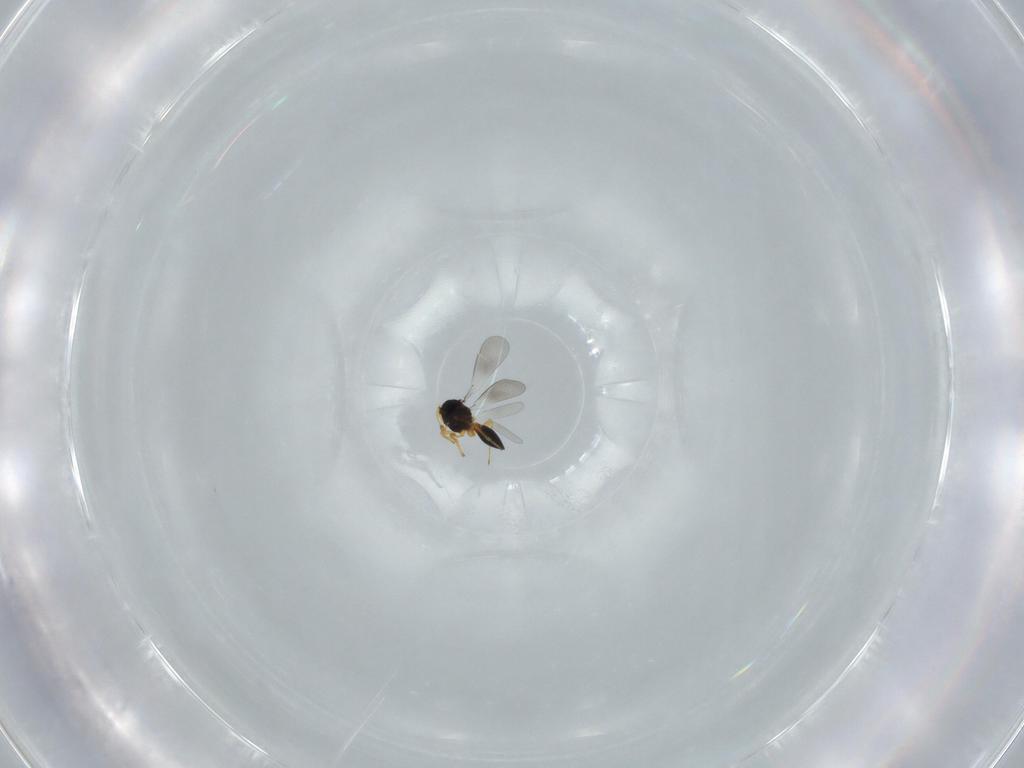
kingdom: Animalia
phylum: Arthropoda
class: Insecta
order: Hymenoptera
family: Platygastridae
